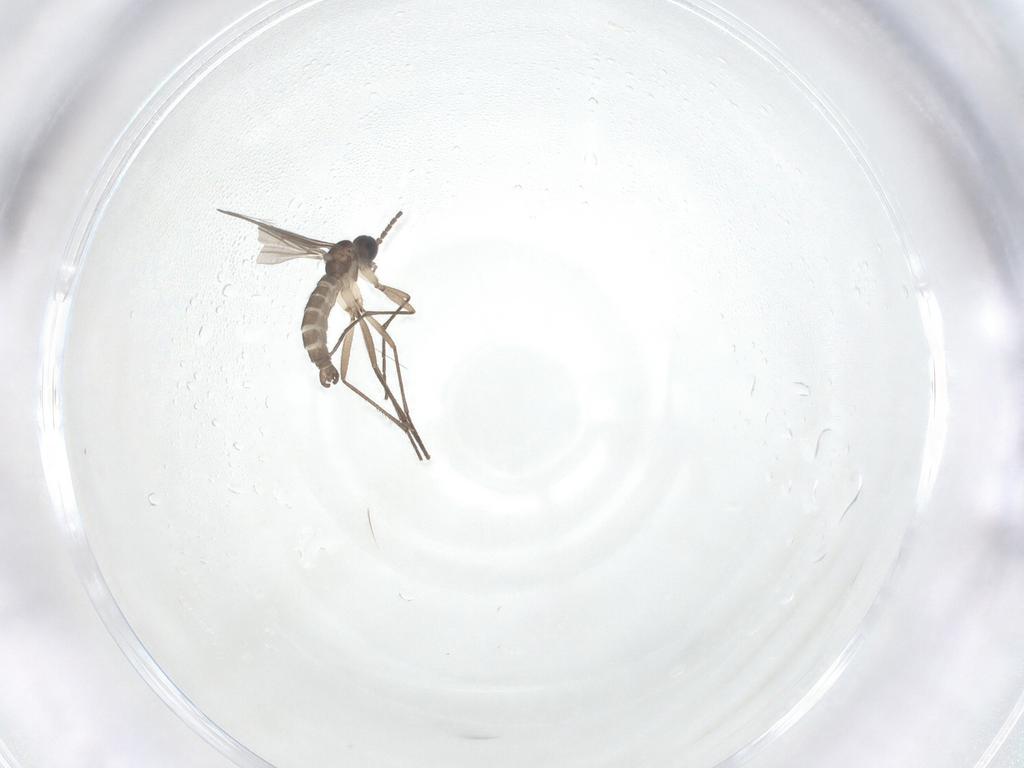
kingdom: Animalia
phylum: Arthropoda
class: Insecta
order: Diptera
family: Sciaridae
